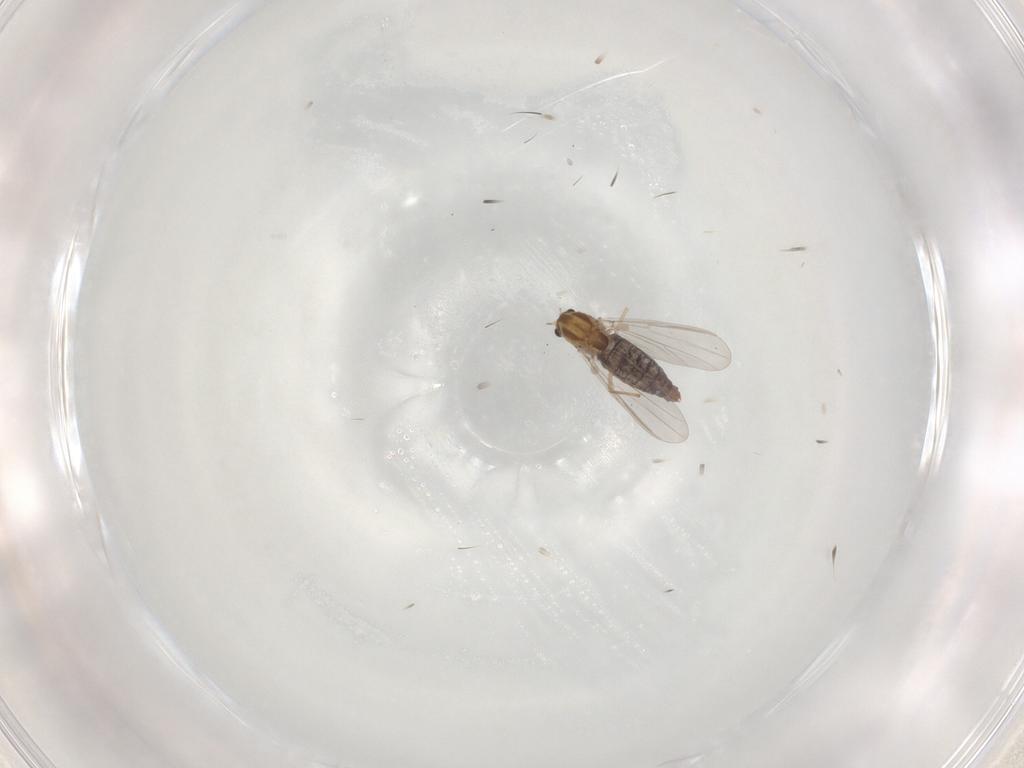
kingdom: Animalia
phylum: Arthropoda
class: Insecta
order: Diptera
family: Chironomidae
